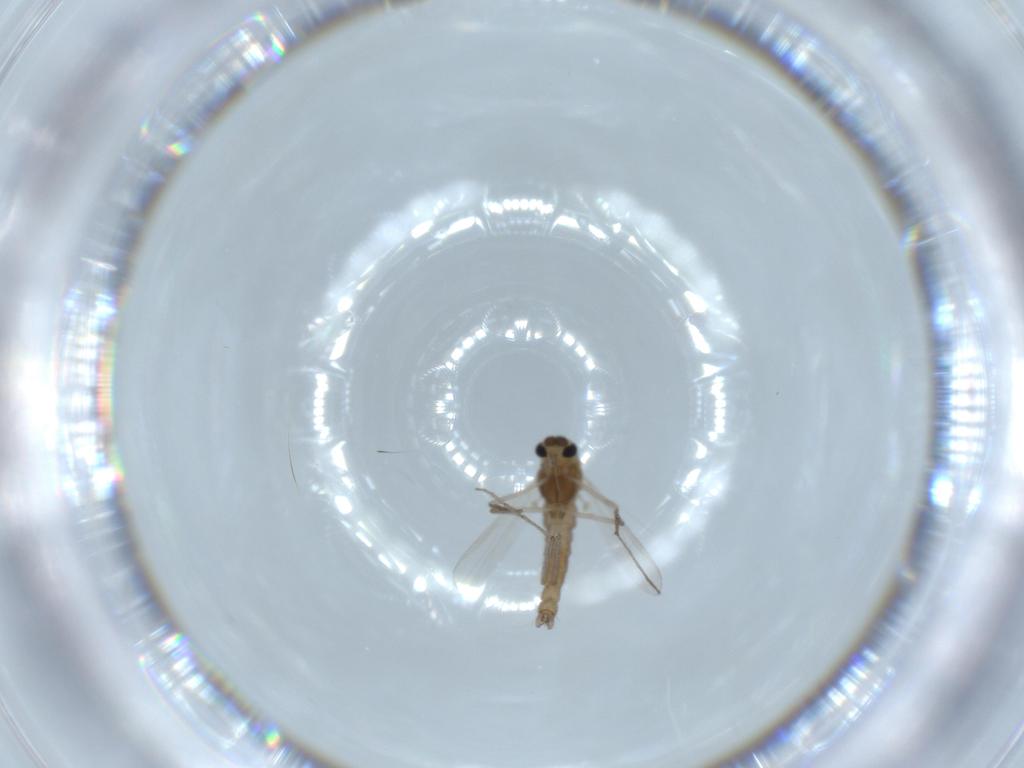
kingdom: Animalia
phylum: Arthropoda
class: Insecta
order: Diptera
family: Chironomidae
